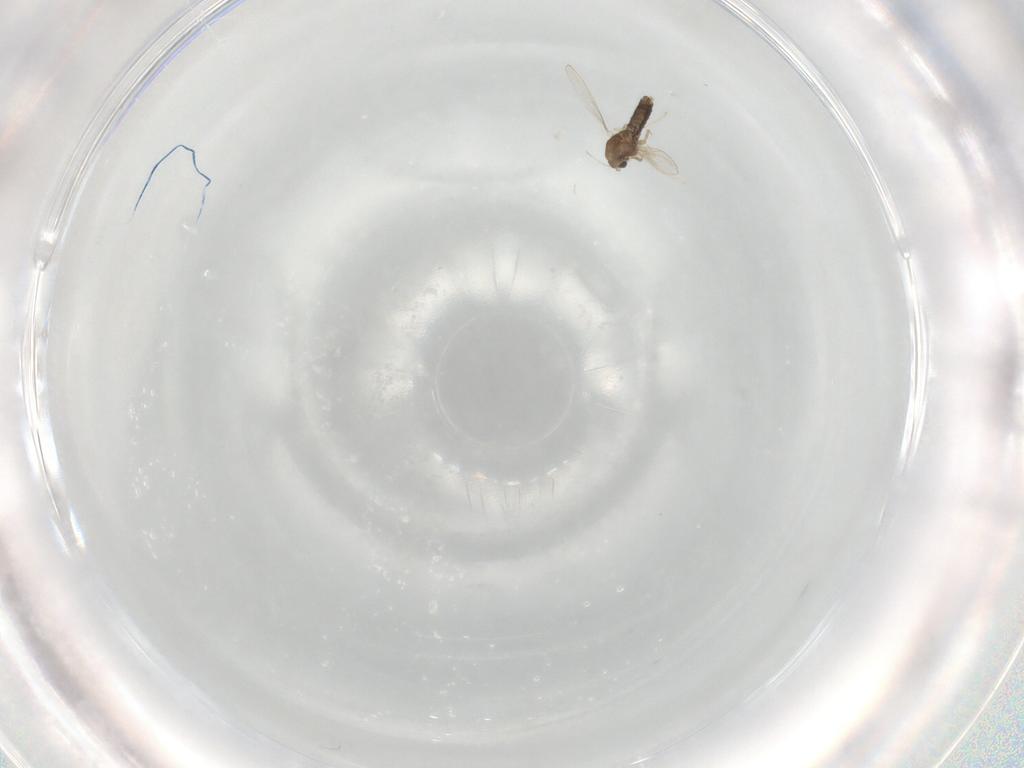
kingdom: Animalia
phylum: Arthropoda
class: Insecta
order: Diptera
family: Chironomidae
